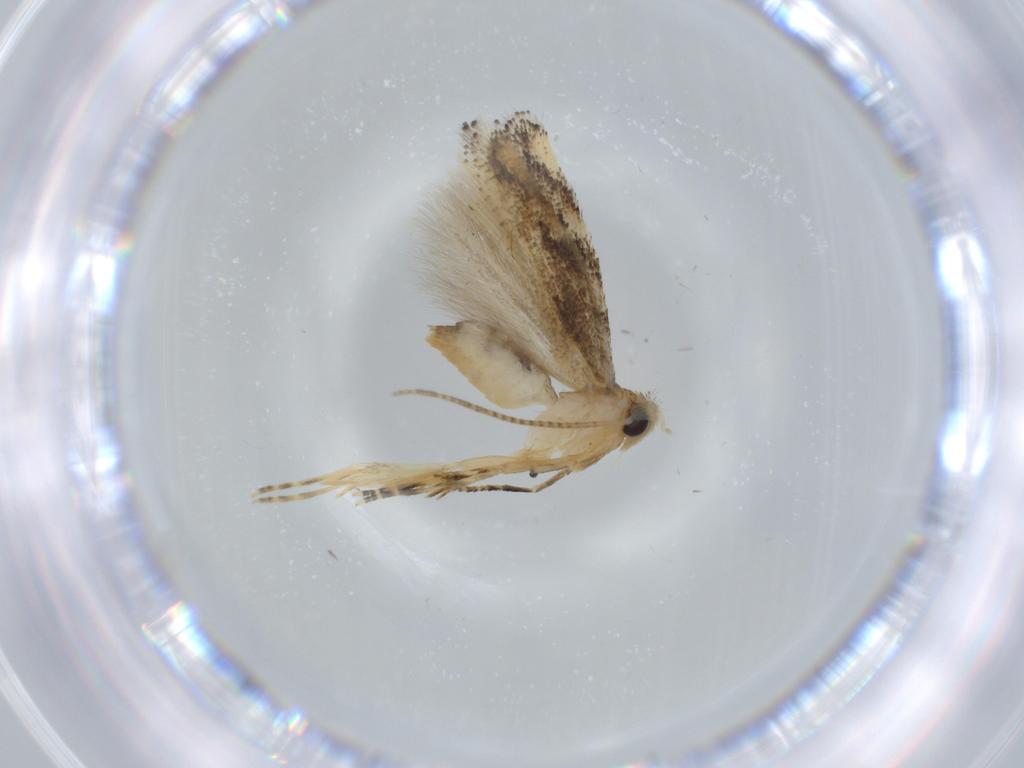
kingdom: Animalia
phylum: Arthropoda
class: Insecta
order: Lepidoptera
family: Bucculatricidae
